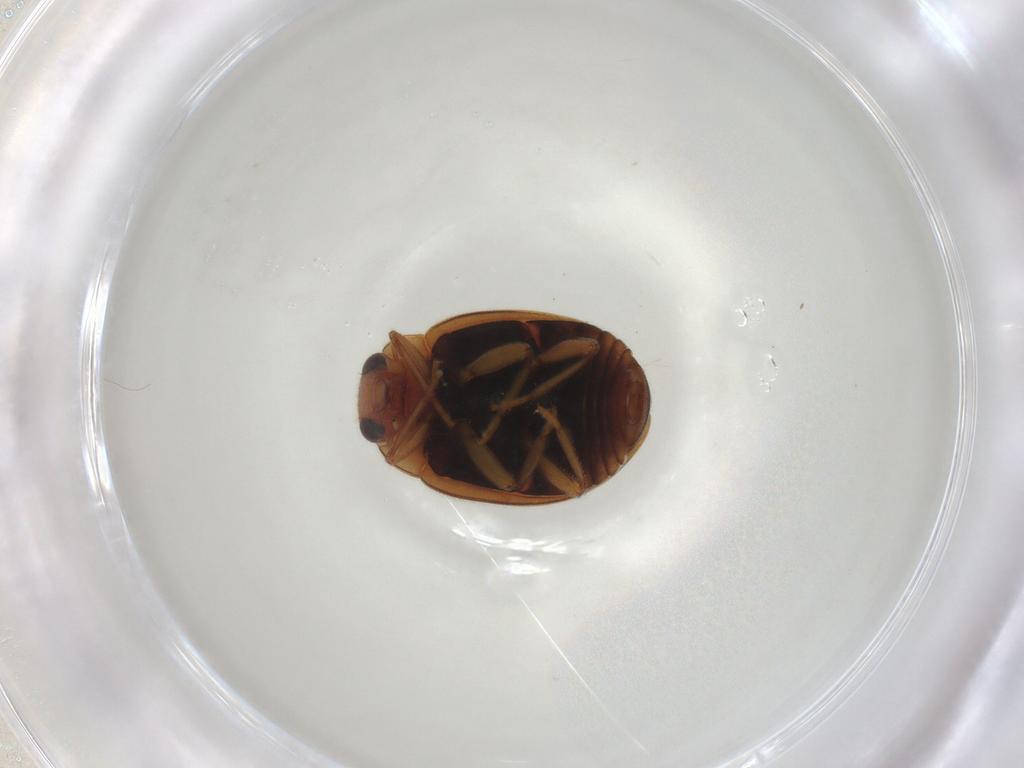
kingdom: Animalia
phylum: Arthropoda
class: Insecta
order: Coleoptera
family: Coccinellidae
